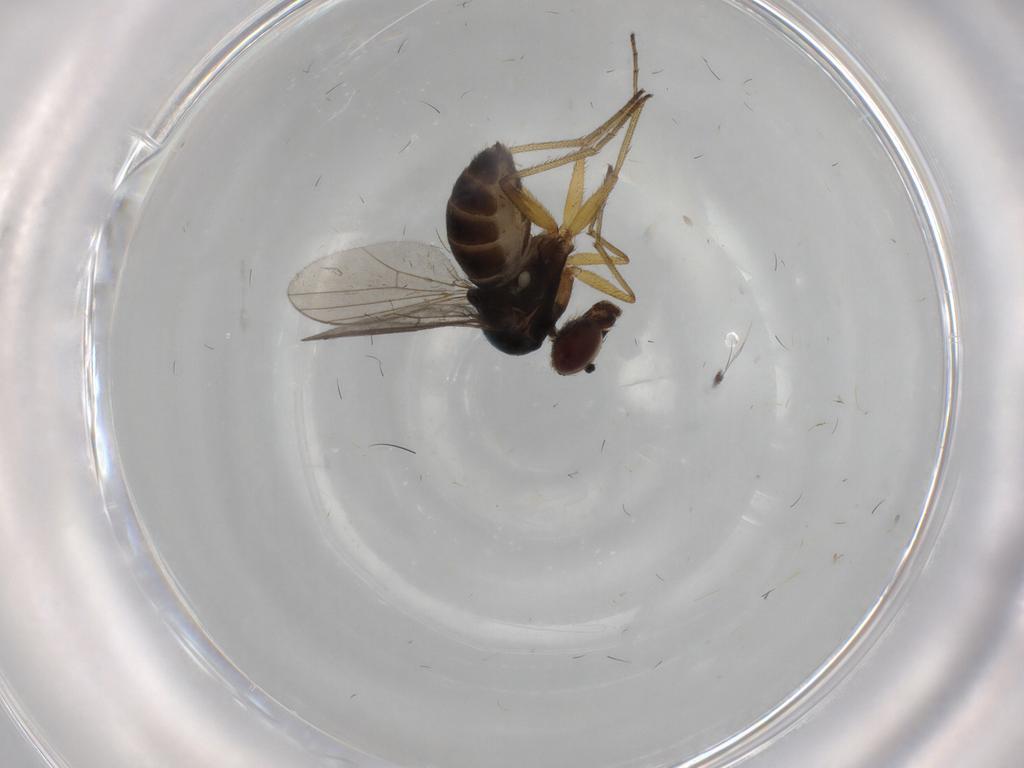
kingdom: Animalia
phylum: Arthropoda
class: Insecta
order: Diptera
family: Dolichopodidae
